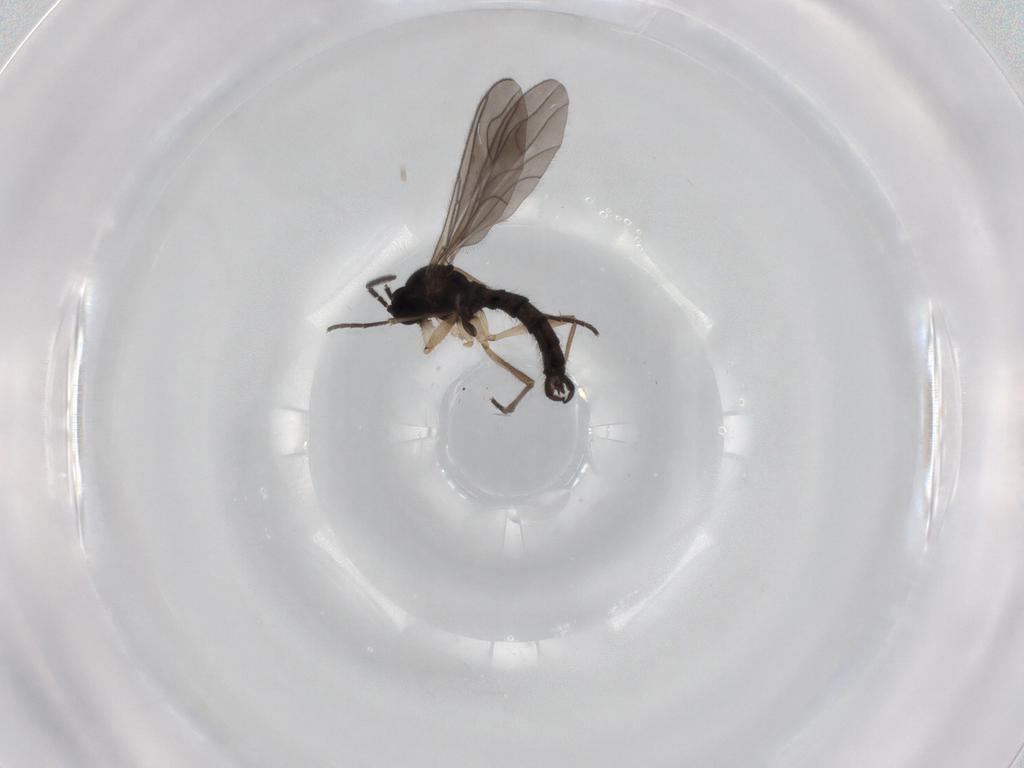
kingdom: Animalia
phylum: Arthropoda
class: Insecta
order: Diptera
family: Sciaridae
